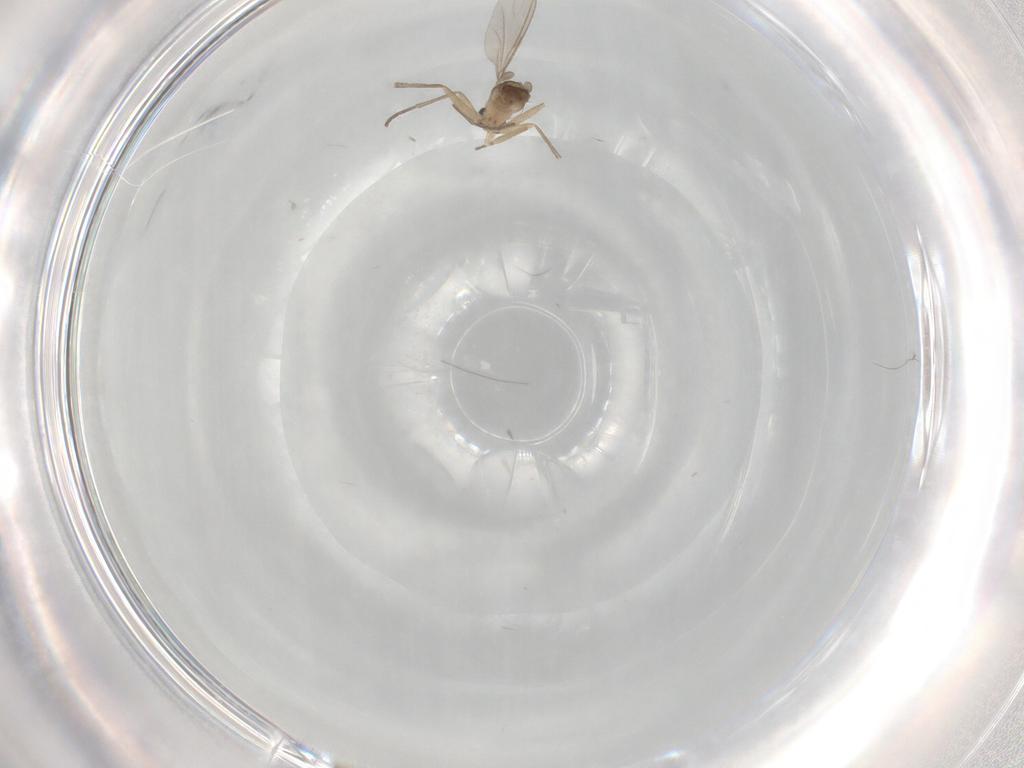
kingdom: Animalia
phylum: Arthropoda
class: Insecta
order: Diptera
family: Sciaridae
